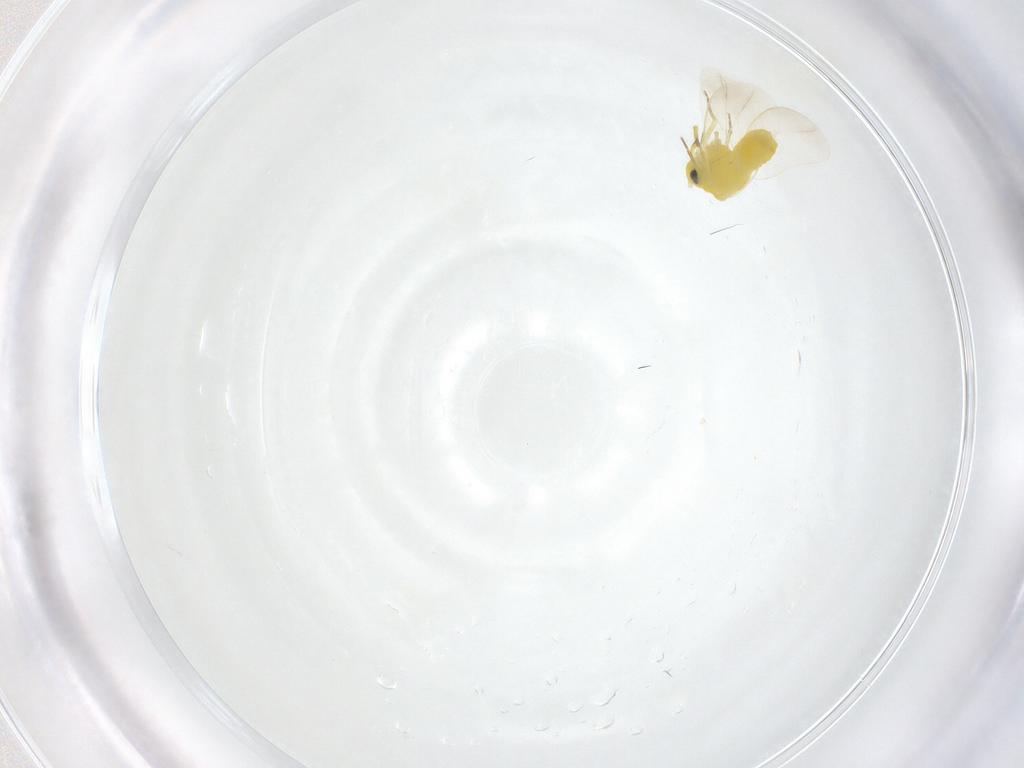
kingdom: Animalia
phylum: Arthropoda
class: Insecta
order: Hemiptera
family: Aleyrodidae
